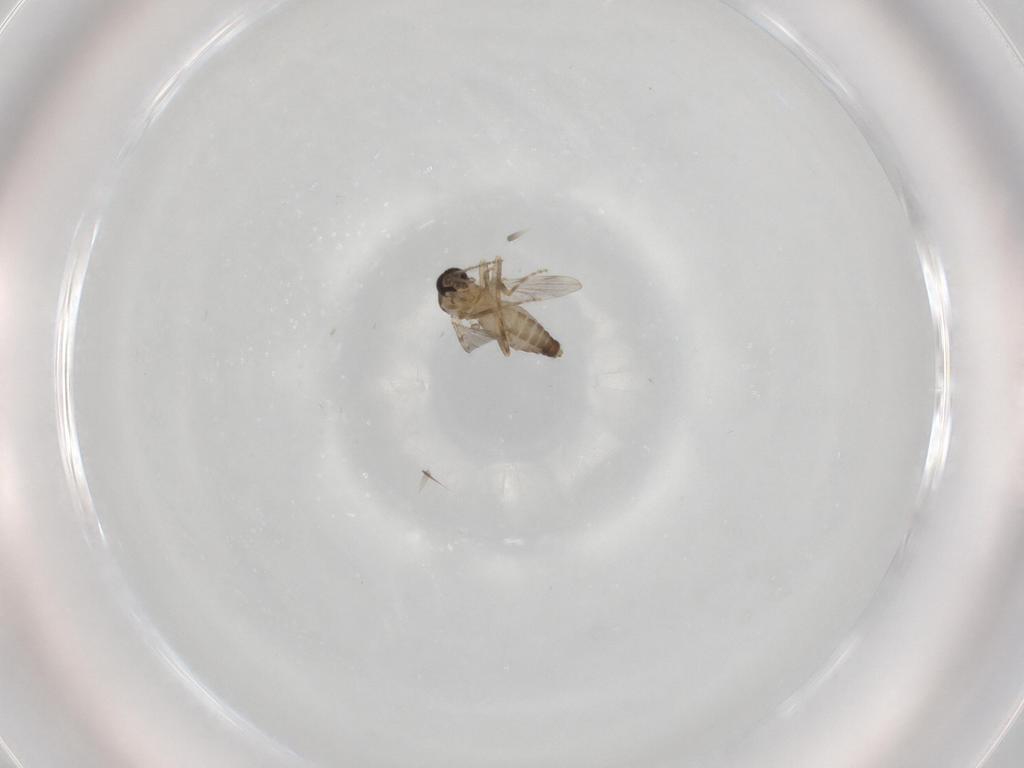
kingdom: Animalia
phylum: Arthropoda
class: Insecta
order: Diptera
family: Ceratopogonidae
